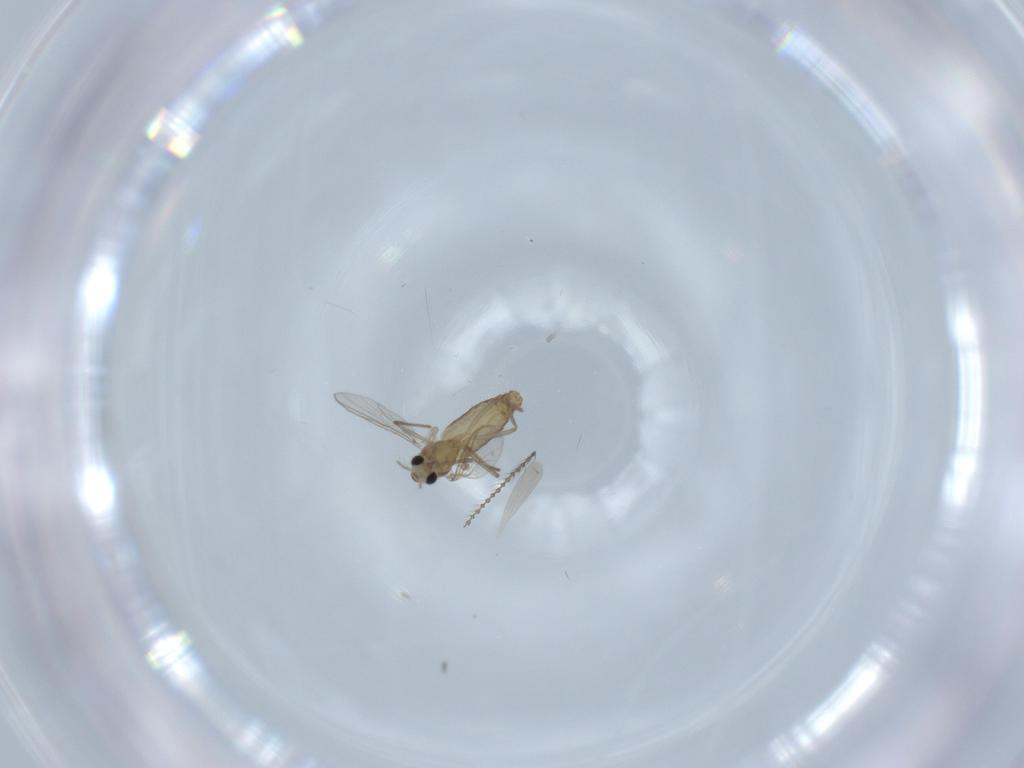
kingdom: Animalia
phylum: Arthropoda
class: Insecta
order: Diptera
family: Chironomidae
